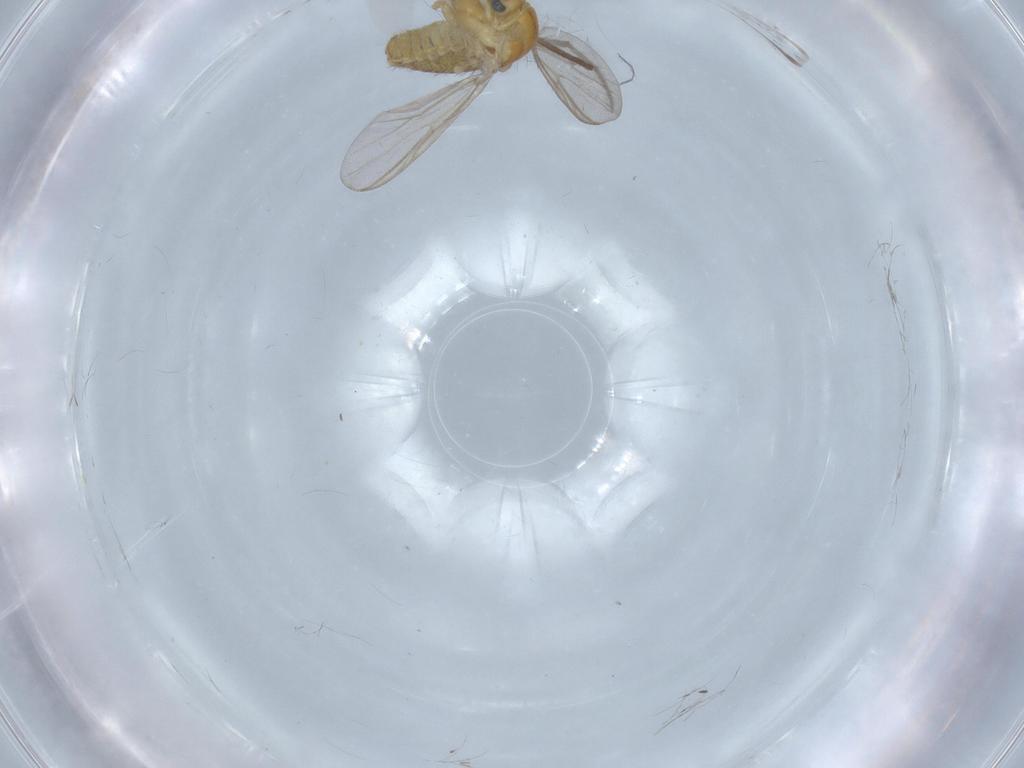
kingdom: Animalia
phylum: Arthropoda
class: Insecta
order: Diptera
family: Chironomidae
